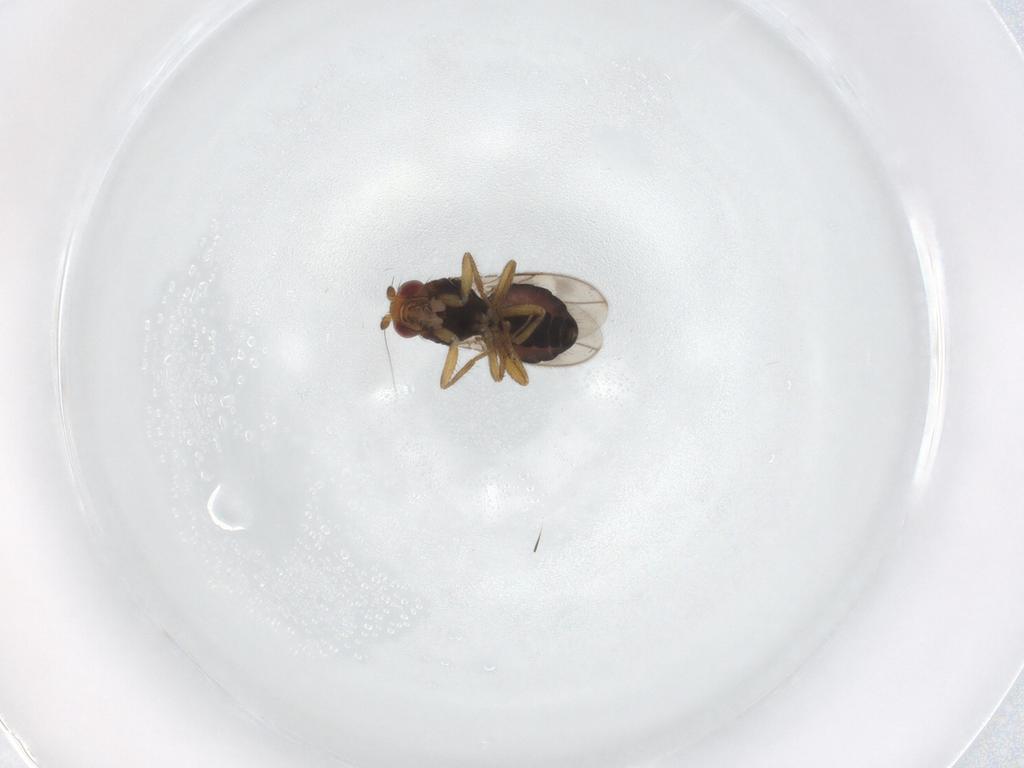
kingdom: Animalia
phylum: Arthropoda
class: Insecta
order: Diptera
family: Sphaeroceridae
